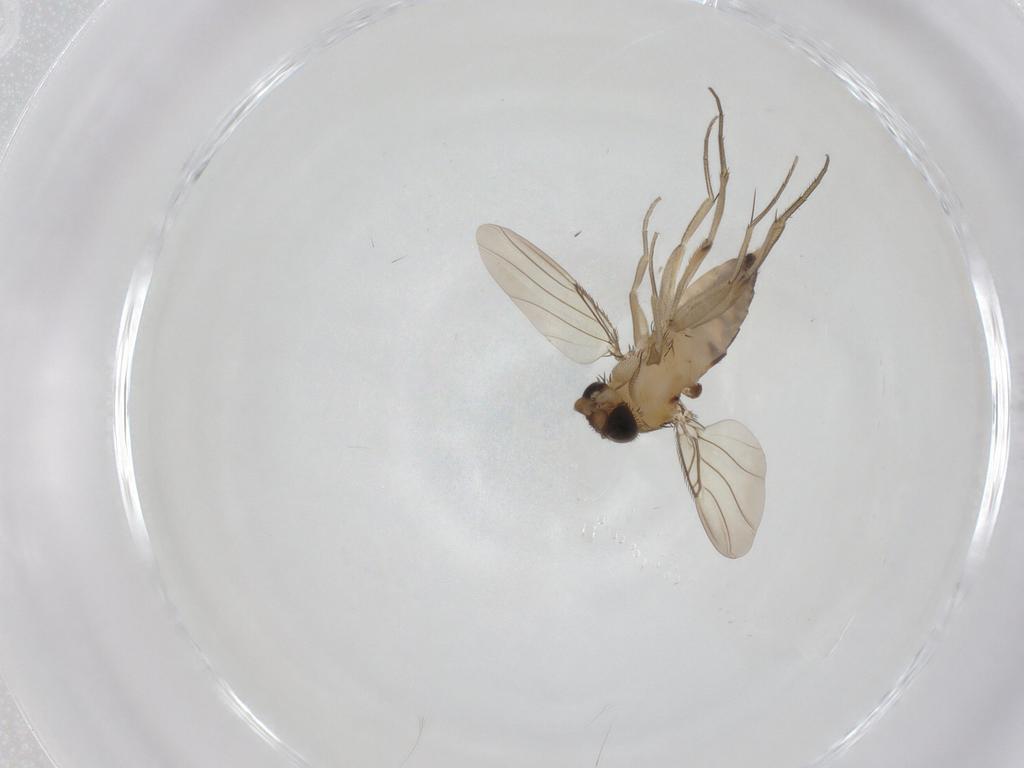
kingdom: Animalia
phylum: Arthropoda
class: Insecta
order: Diptera
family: Phoridae
